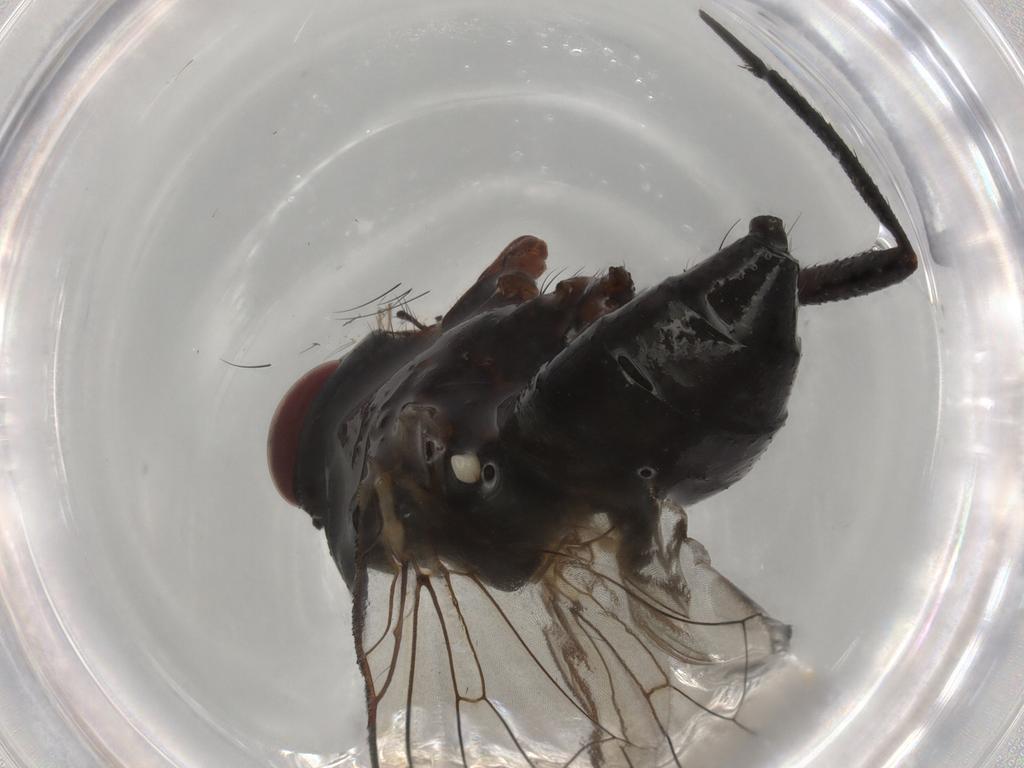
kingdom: Animalia
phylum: Arthropoda
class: Insecta
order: Diptera
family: Anthomyiidae
